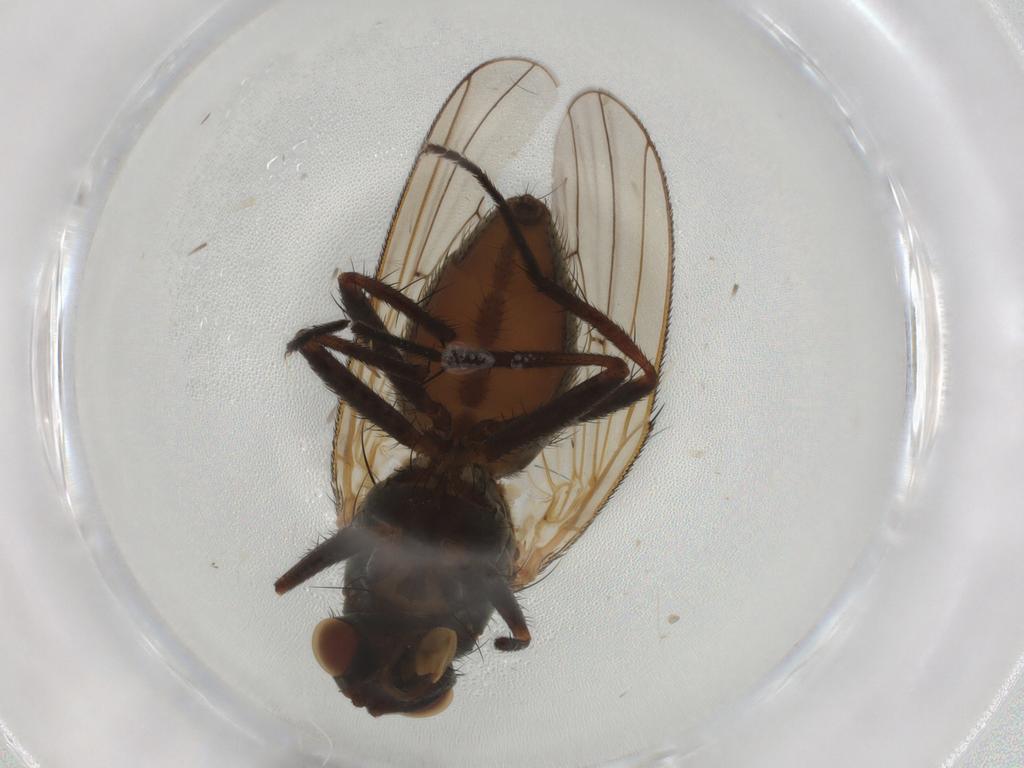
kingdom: Animalia
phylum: Arthropoda
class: Insecta
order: Diptera
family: Anthomyiidae
